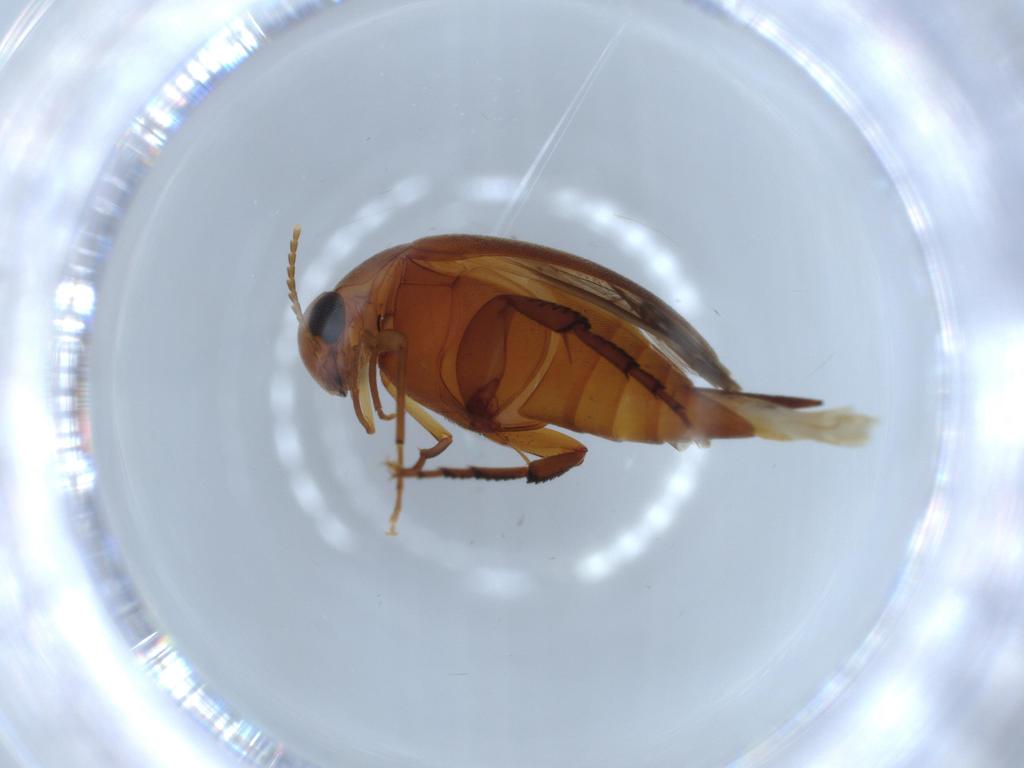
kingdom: Animalia
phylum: Arthropoda
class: Insecta
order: Coleoptera
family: Mordellidae
